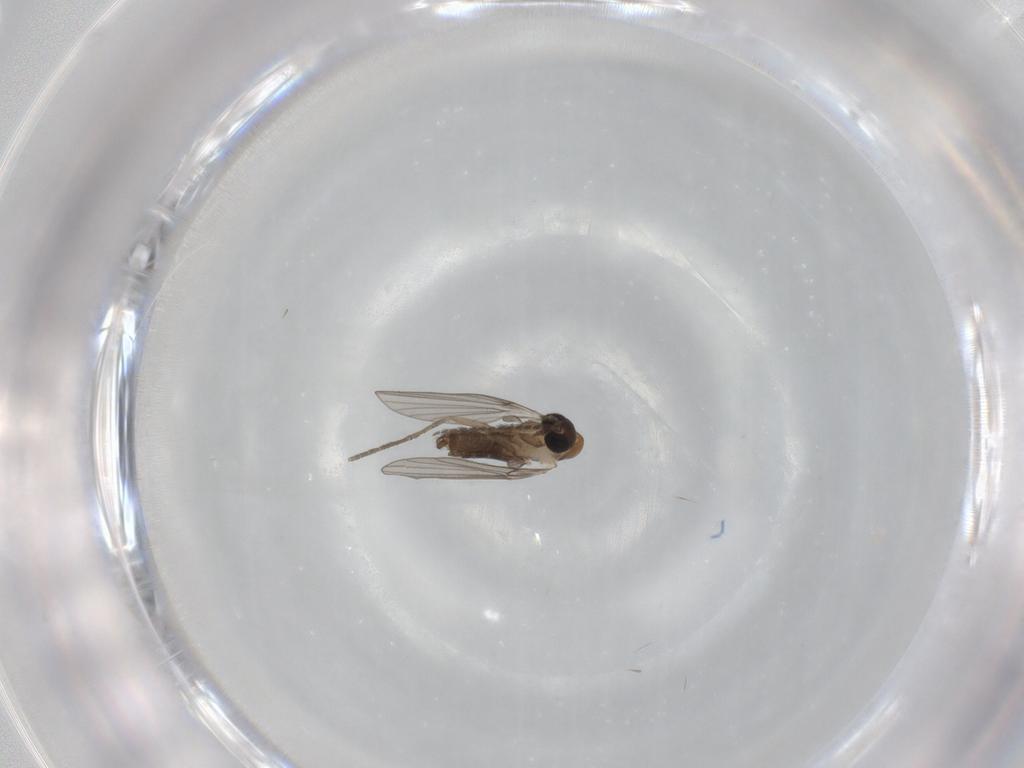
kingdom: Animalia
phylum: Arthropoda
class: Insecta
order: Diptera
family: Psychodidae
